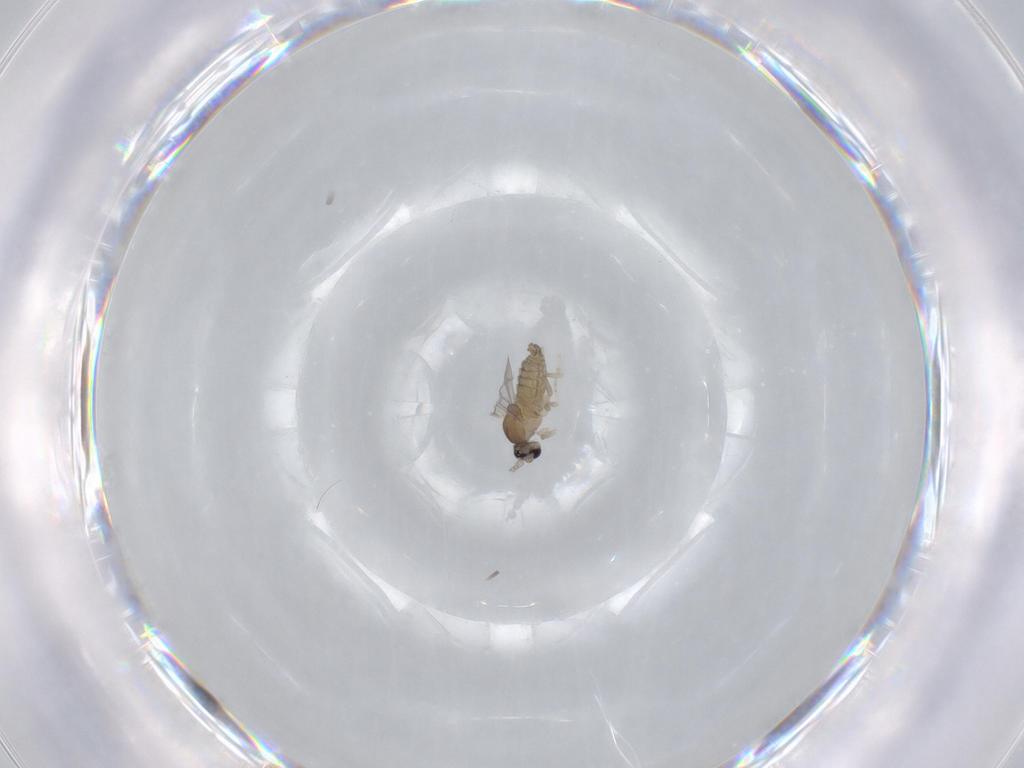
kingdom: Animalia
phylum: Arthropoda
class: Insecta
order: Diptera
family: Cecidomyiidae
